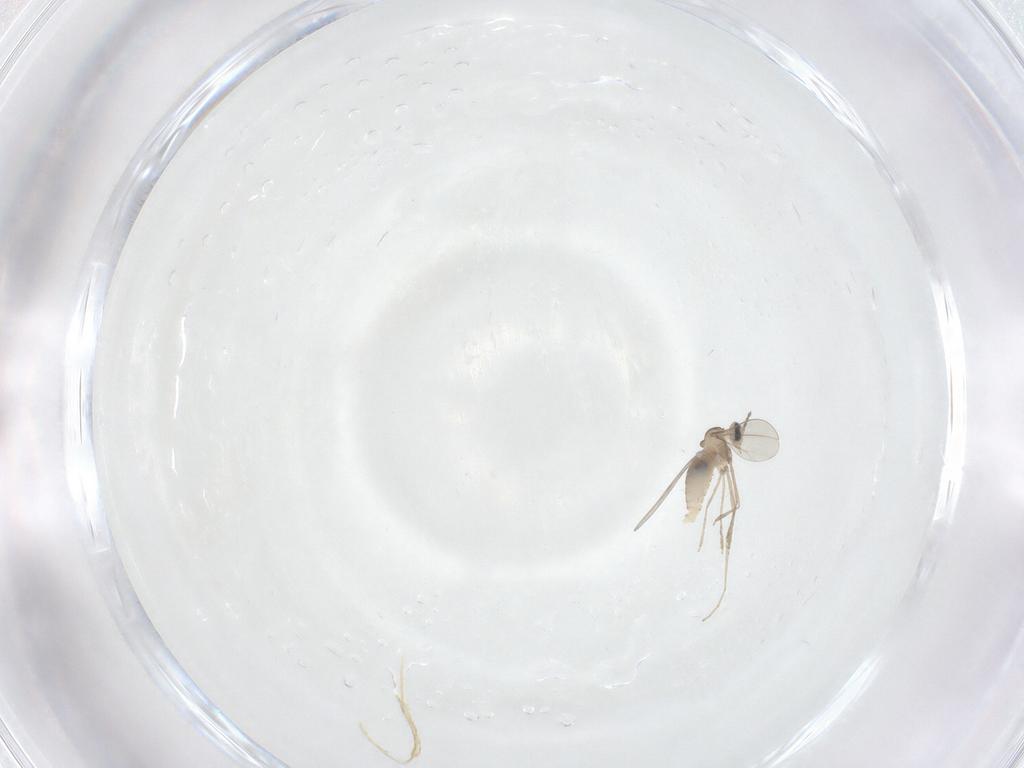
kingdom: Animalia
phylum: Arthropoda
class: Insecta
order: Diptera
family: Limoniidae
